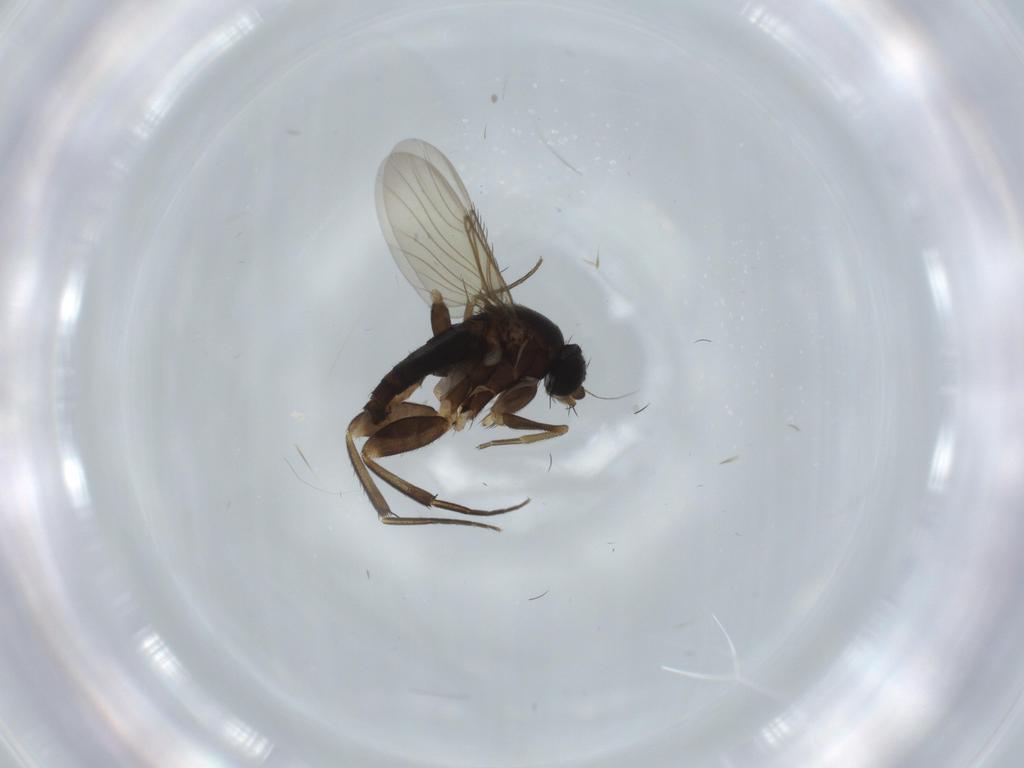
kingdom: Animalia
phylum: Arthropoda
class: Insecta
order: Diptera
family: Phoridae
